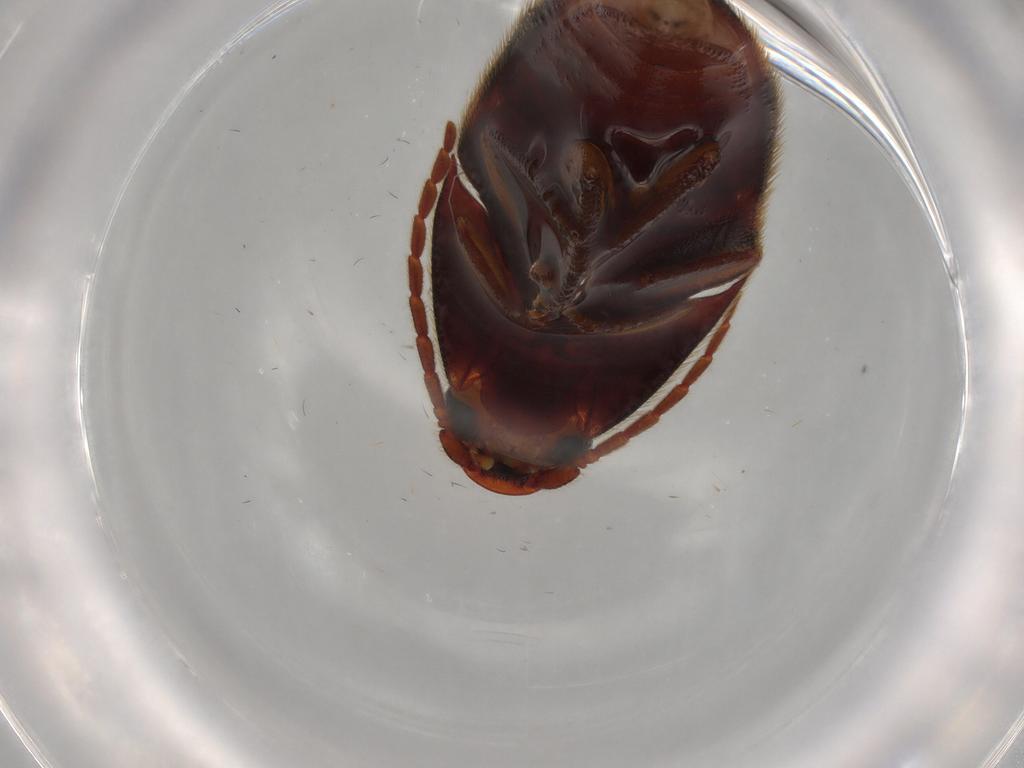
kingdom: Animalia
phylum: Arthropoda
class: Insecta
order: Coleoptera
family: Elateridae
